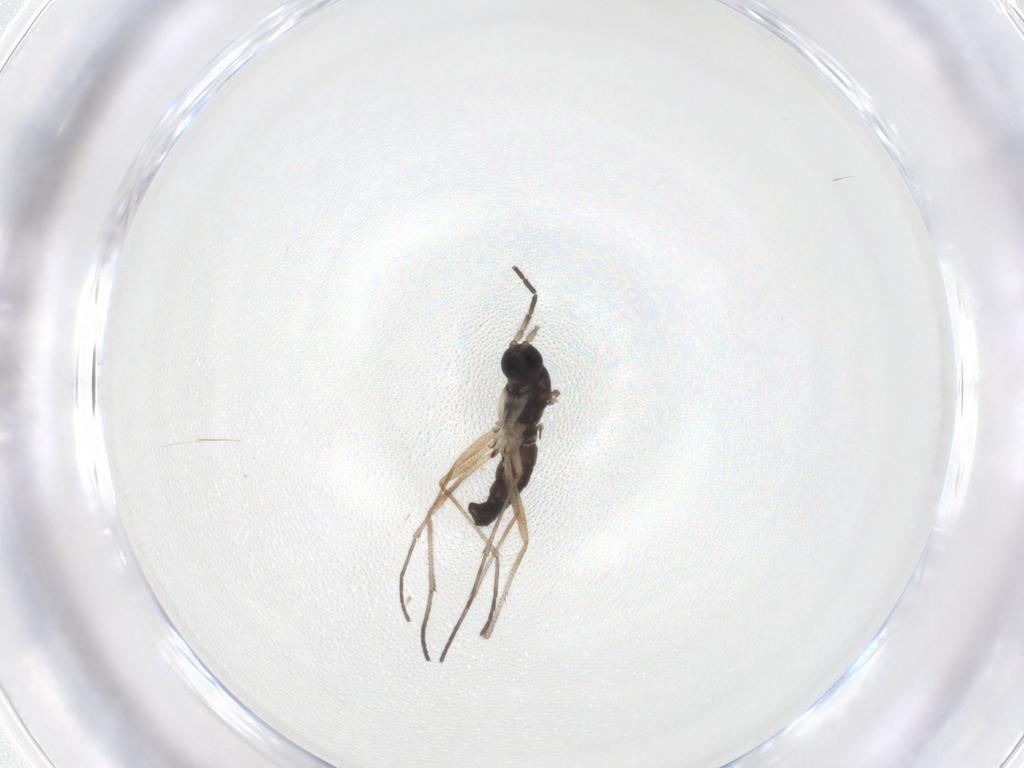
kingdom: Animalia
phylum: Arthropoda
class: Insecta
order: Diptera
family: Sciaridae
